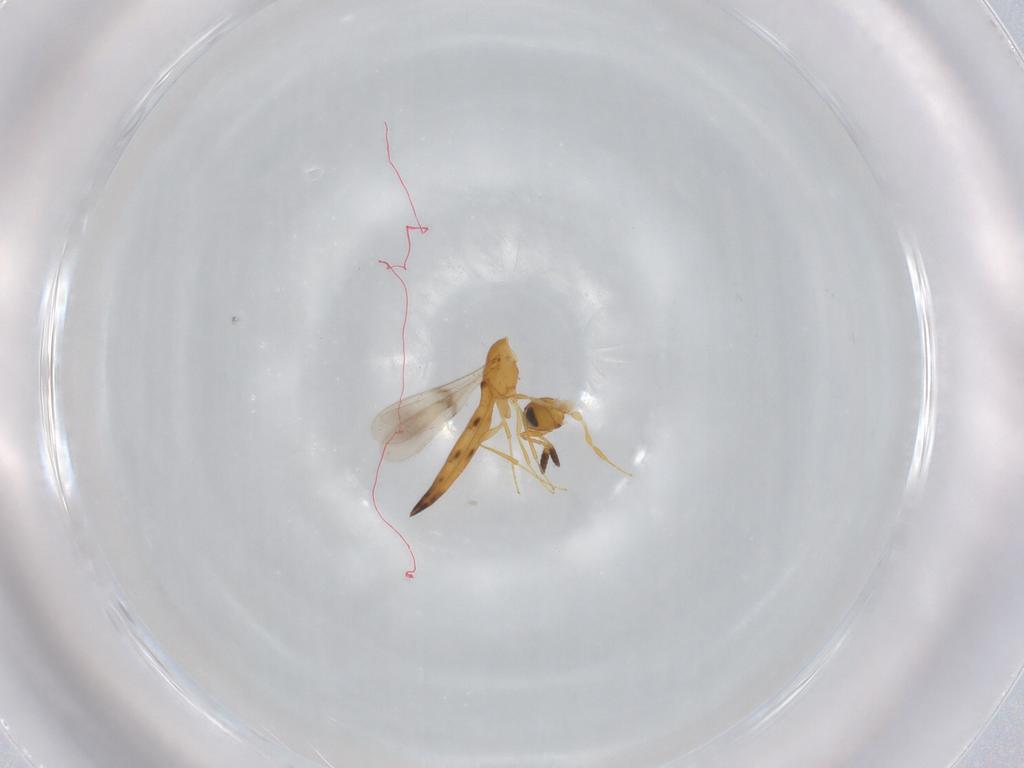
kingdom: Animalia
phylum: Arthropoda
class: Insecta
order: Hymenoptera
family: Scelionidae
